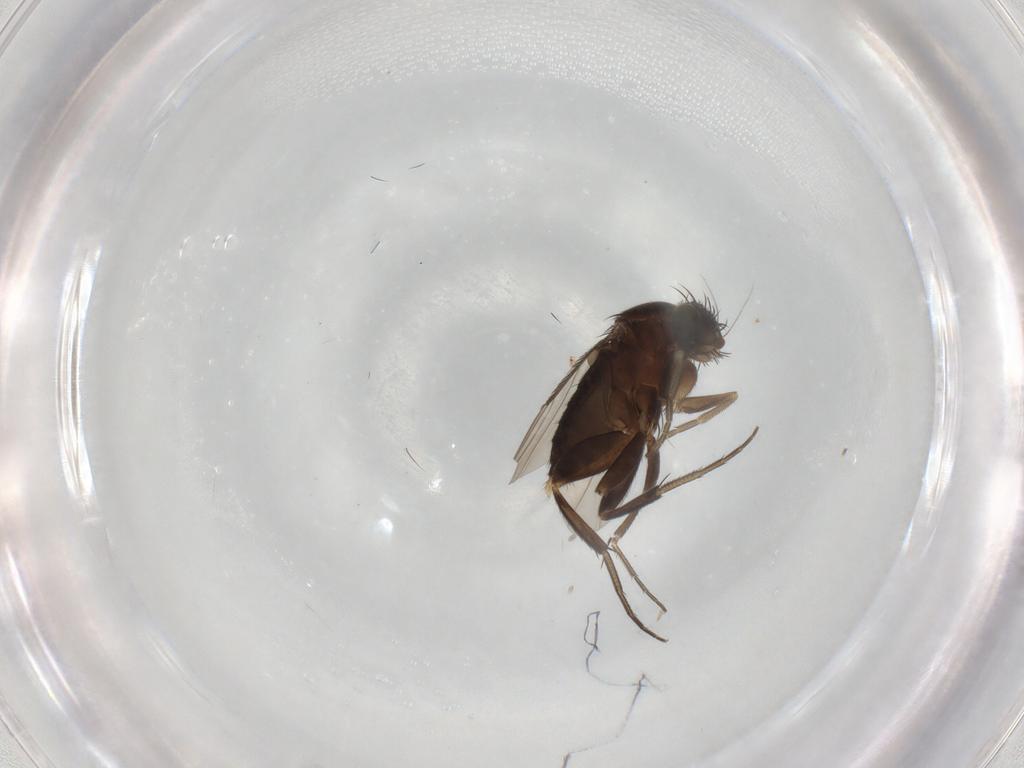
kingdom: Animalia
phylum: Arthropoda
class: Insecta
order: Diptera
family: Phoridae
